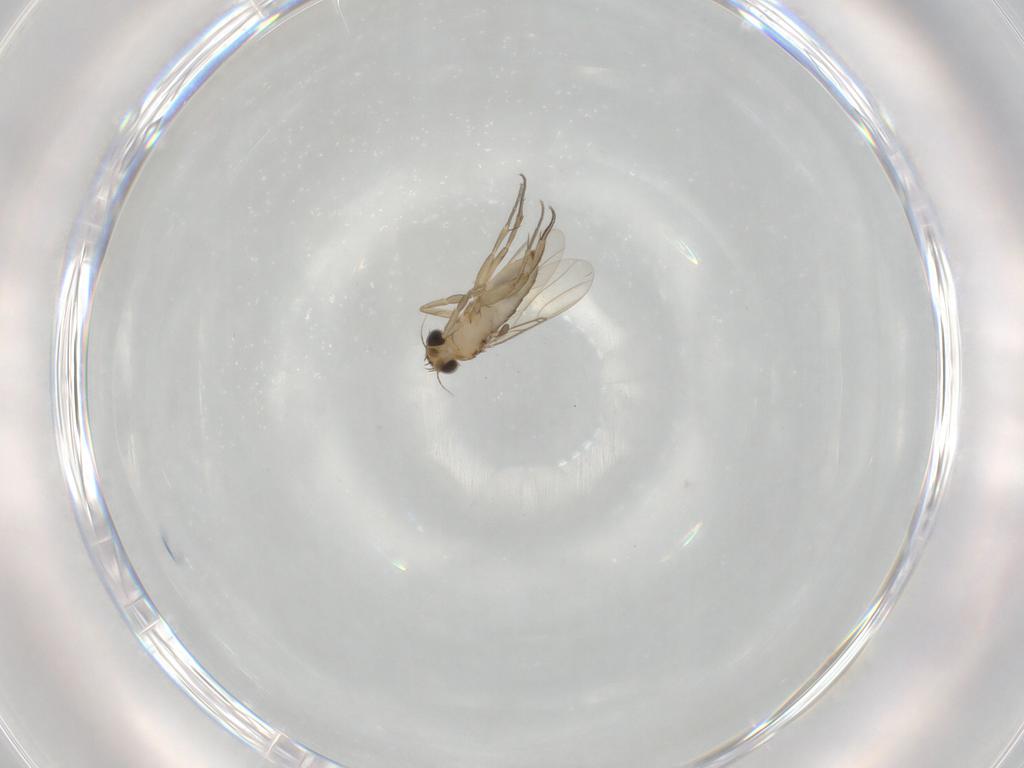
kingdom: Animalia
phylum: Arthropoda
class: Insecta
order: Diptera
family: Phoridae
